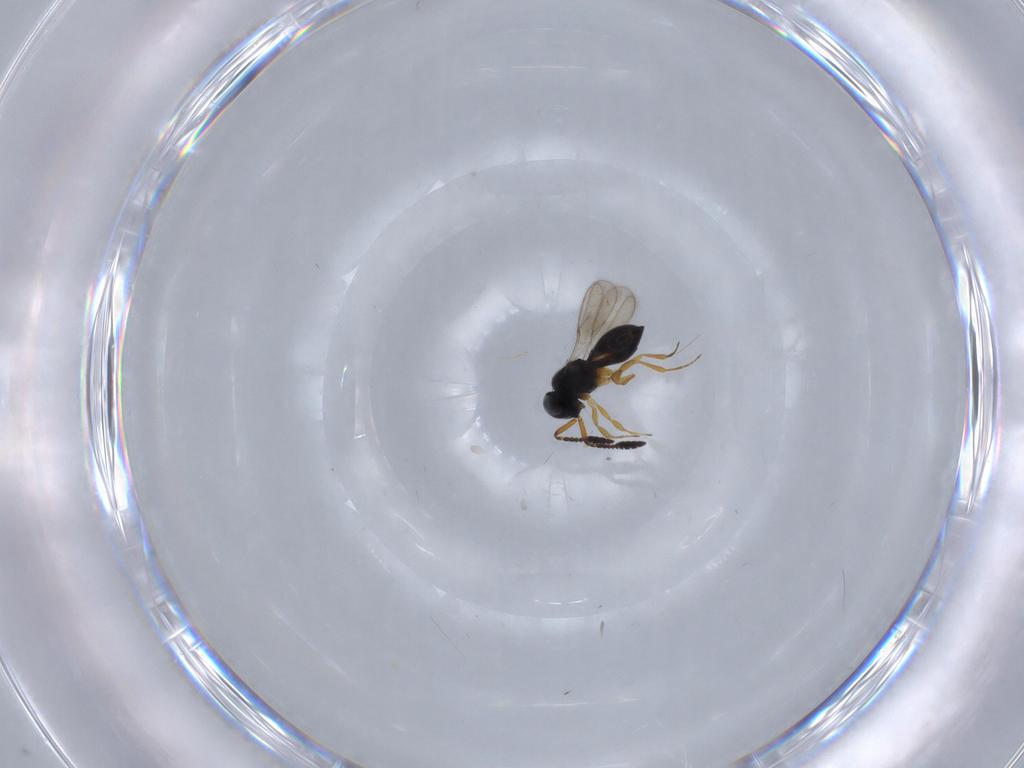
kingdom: Animalia
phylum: Arthropoda
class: Insecta
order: Hymenoptera
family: Scelionidae
